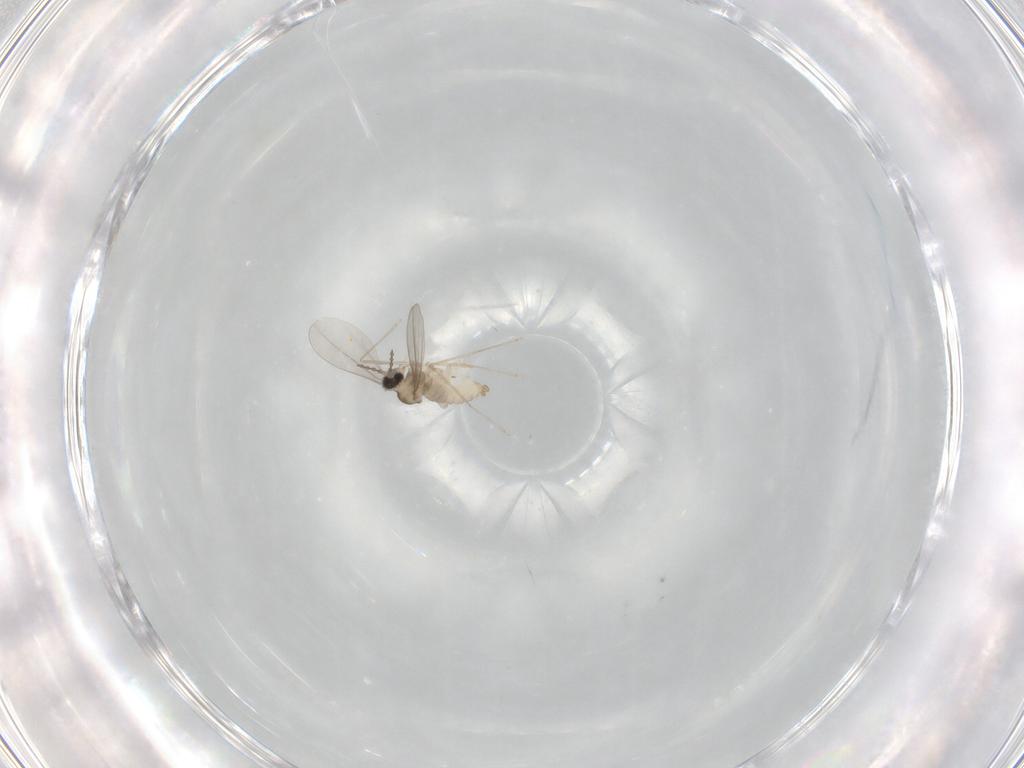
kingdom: Animalia
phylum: Arthropoda
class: Insecta
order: Diptera
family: Cecidomyiidae
